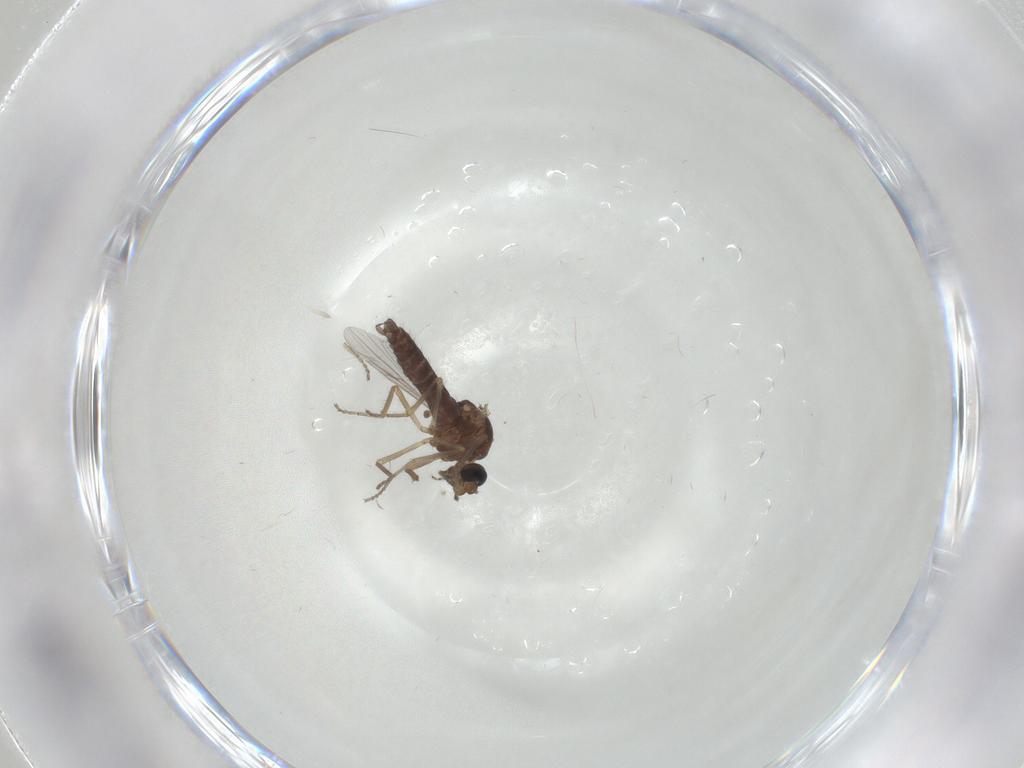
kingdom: Animalia
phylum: Arthropoda
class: Insecta
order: Diptera
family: Ceratopogonidae
